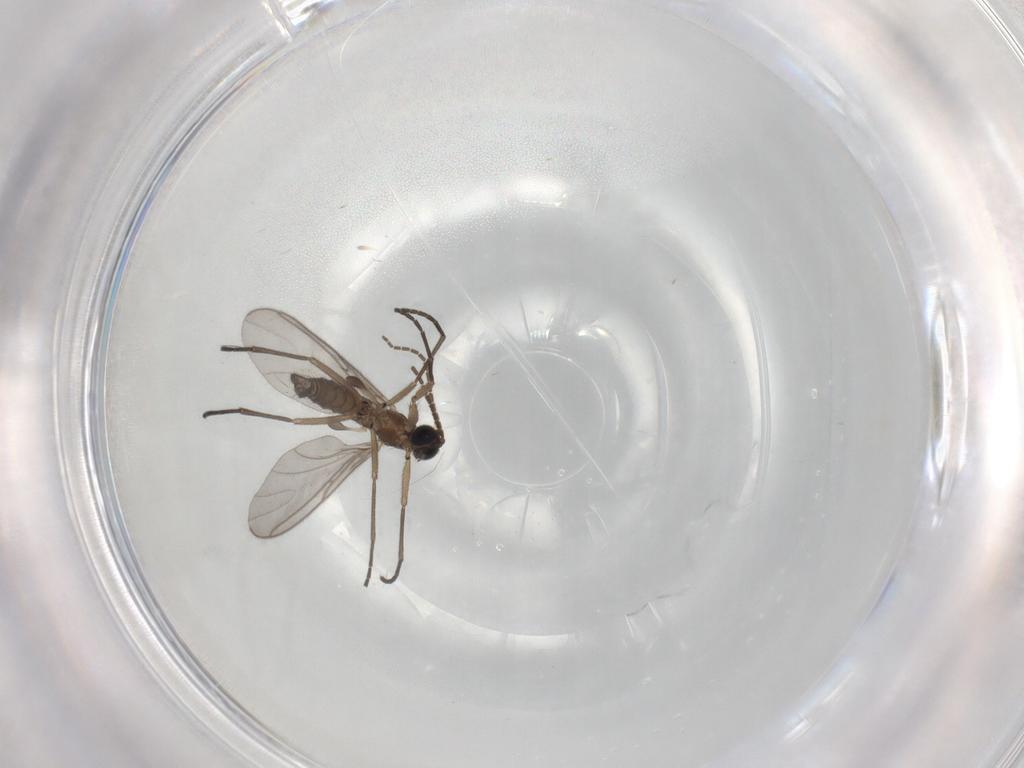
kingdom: Animalia
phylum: Arthropoda
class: Insecta
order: Diptera
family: Sciaridae
